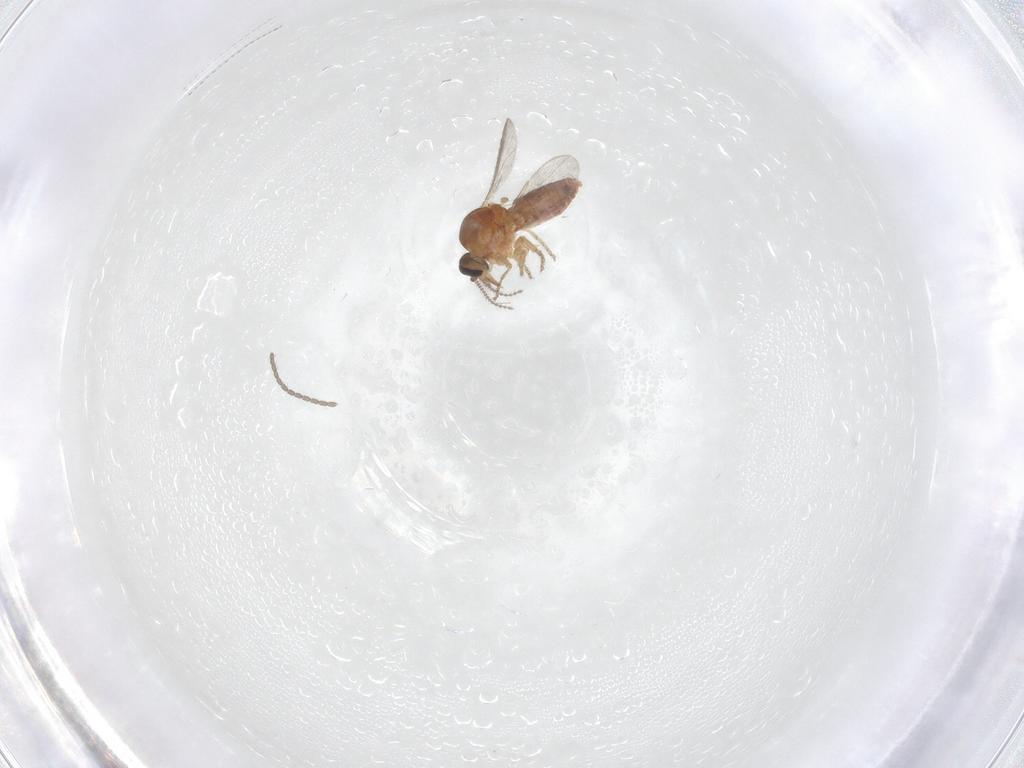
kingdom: Animalia
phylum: Arthropoda
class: Insecta
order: Diptera
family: Ceratopogonidae
